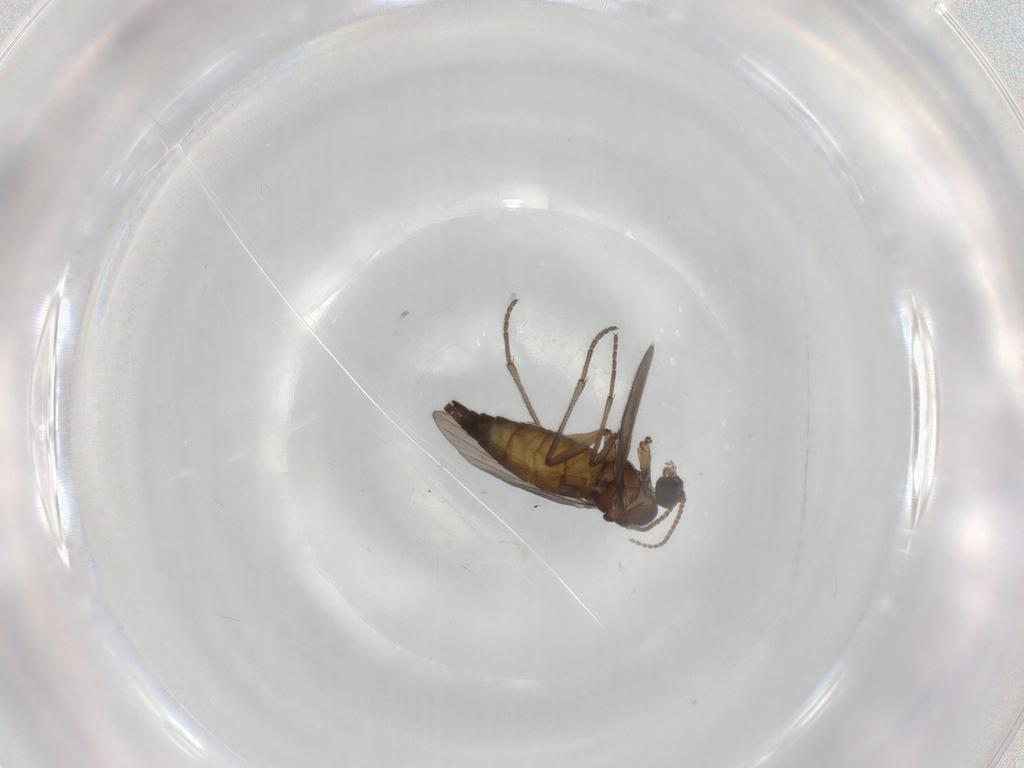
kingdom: Animalia
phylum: Arthropoda
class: Insecta
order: Diptera
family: Sciaridae
